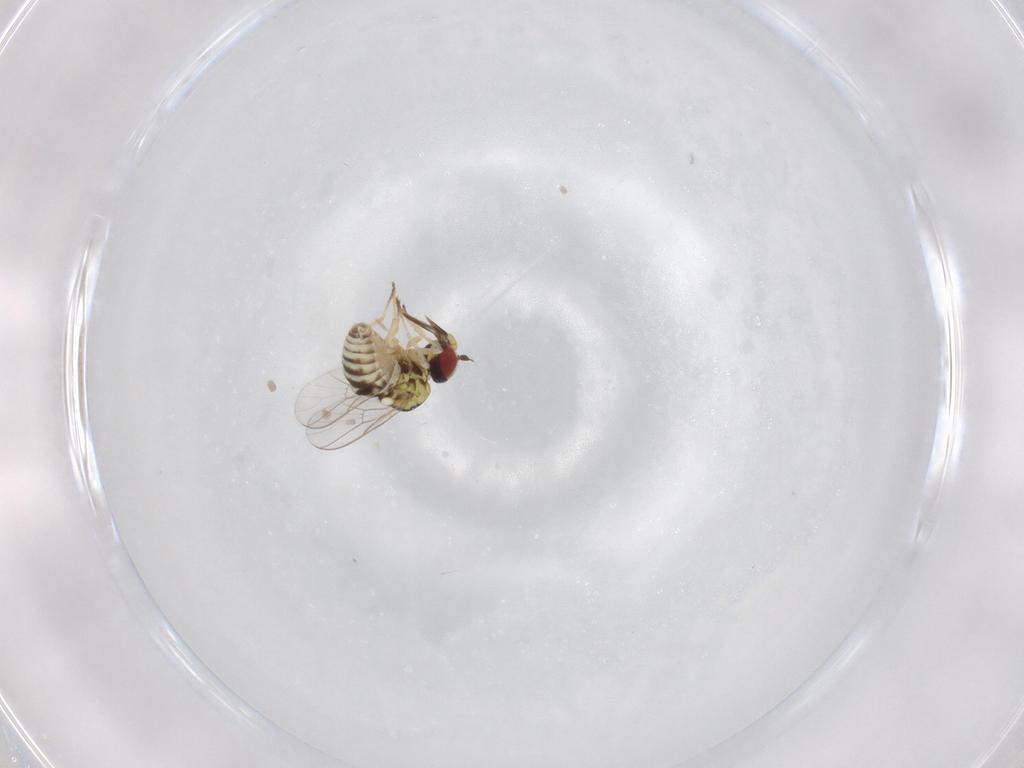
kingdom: Animalia
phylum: Arthropoda
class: Insecta
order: Diptera
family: Bombyliidae
